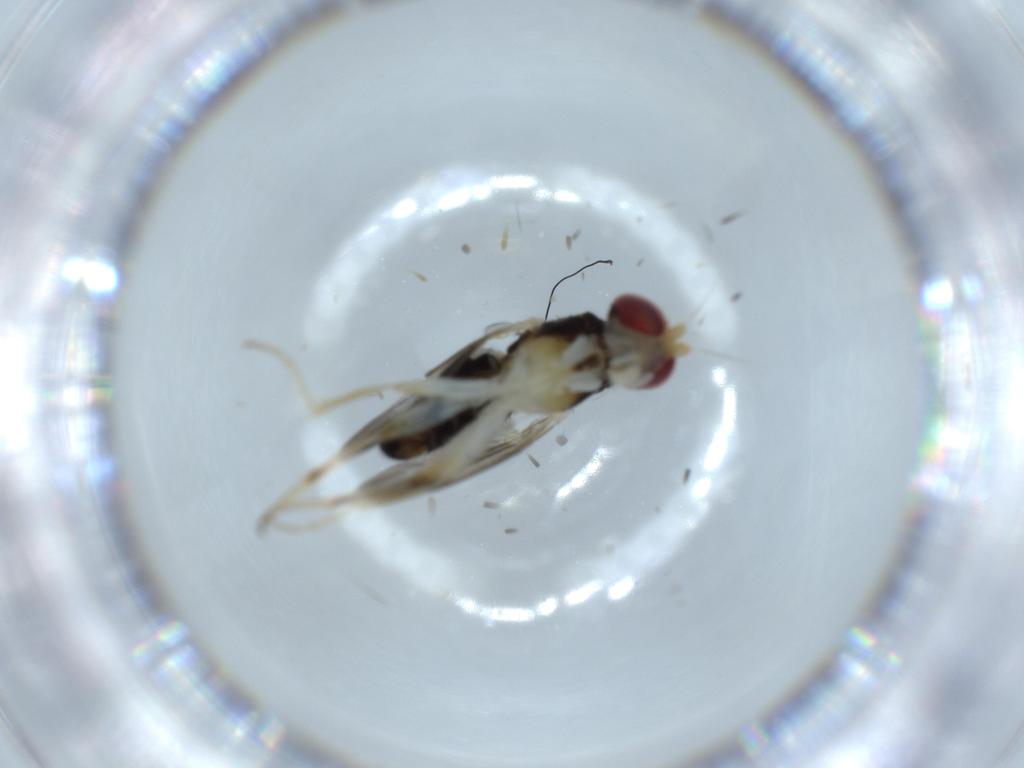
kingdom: Animalia
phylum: Arthropoda
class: Insecta
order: Diptera
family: Clusiidae
